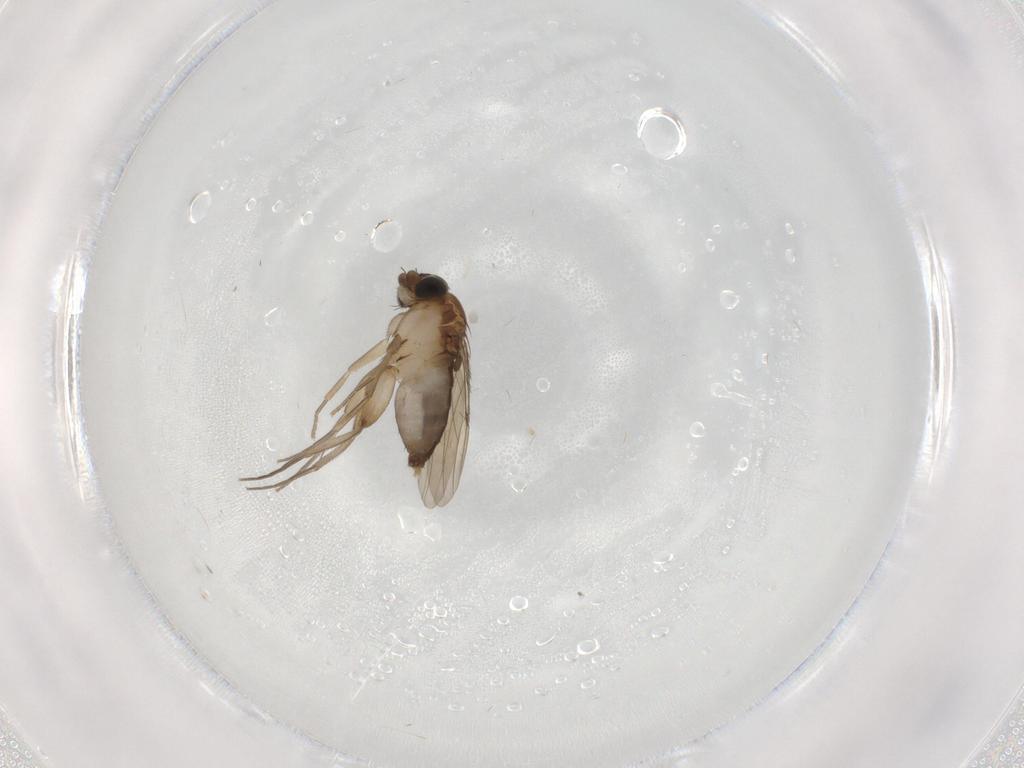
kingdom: Animalia
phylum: Arthropoda
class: Insecta
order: Diptera
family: Phoridae
